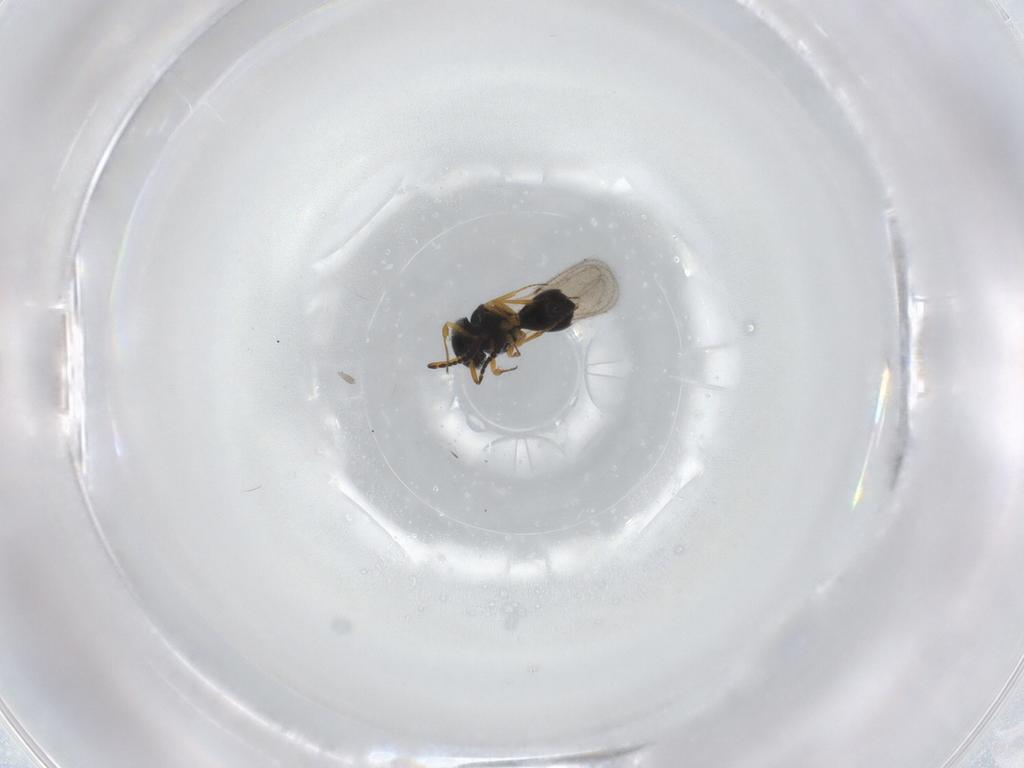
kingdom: Animalia
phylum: Arthropoda
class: Insecta
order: Hymenoptera
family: Scelionidae
